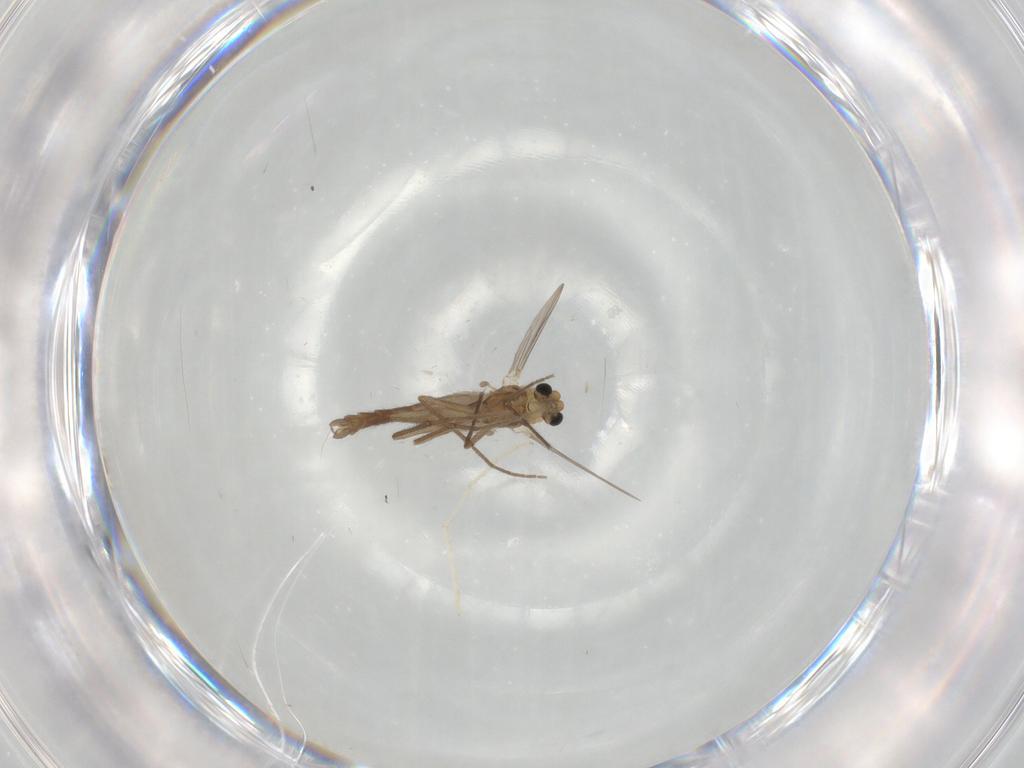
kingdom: Animalia
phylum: Arthropoda
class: Insecta
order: Diptera
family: Chironomidae
